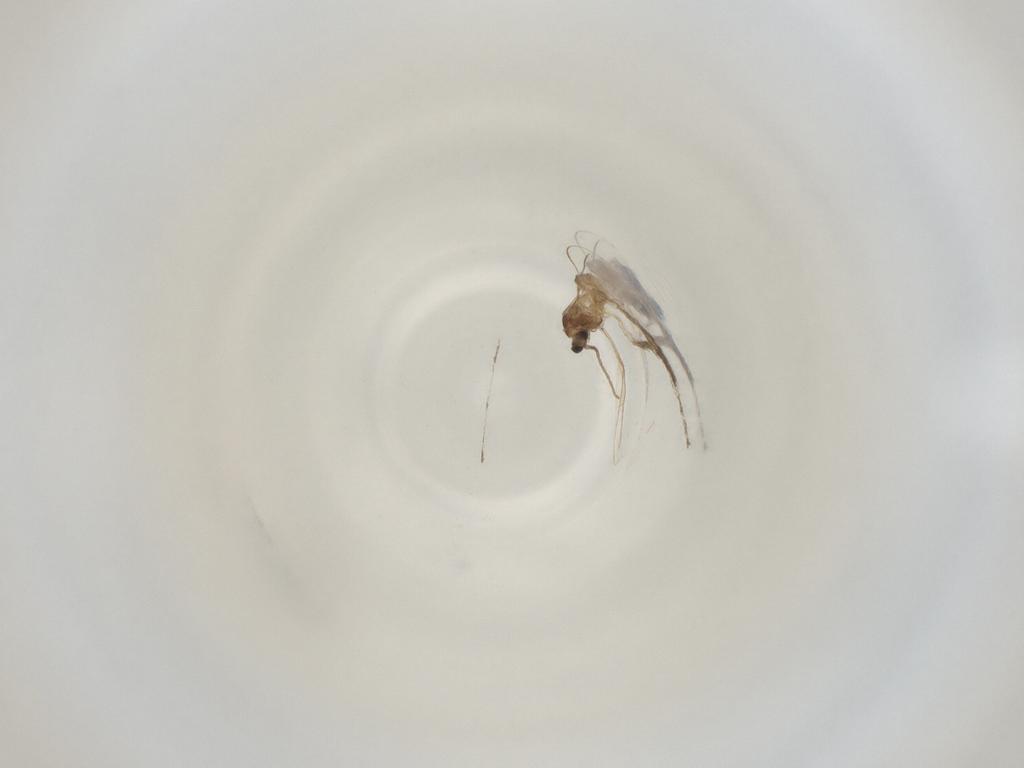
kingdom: Animalia
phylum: Arthropoda
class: Insecta
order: Diptera
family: Cecidomyiidae
